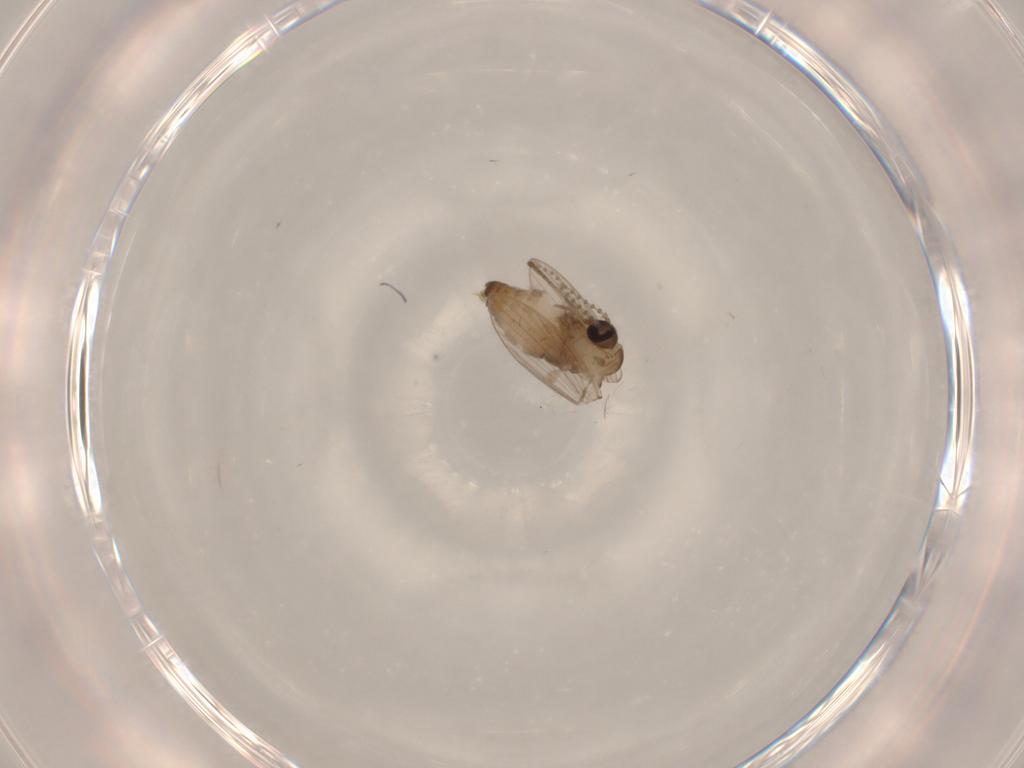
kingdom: Animalia
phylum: Arthropoda
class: Insecta
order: Diptera
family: Psychodidae
